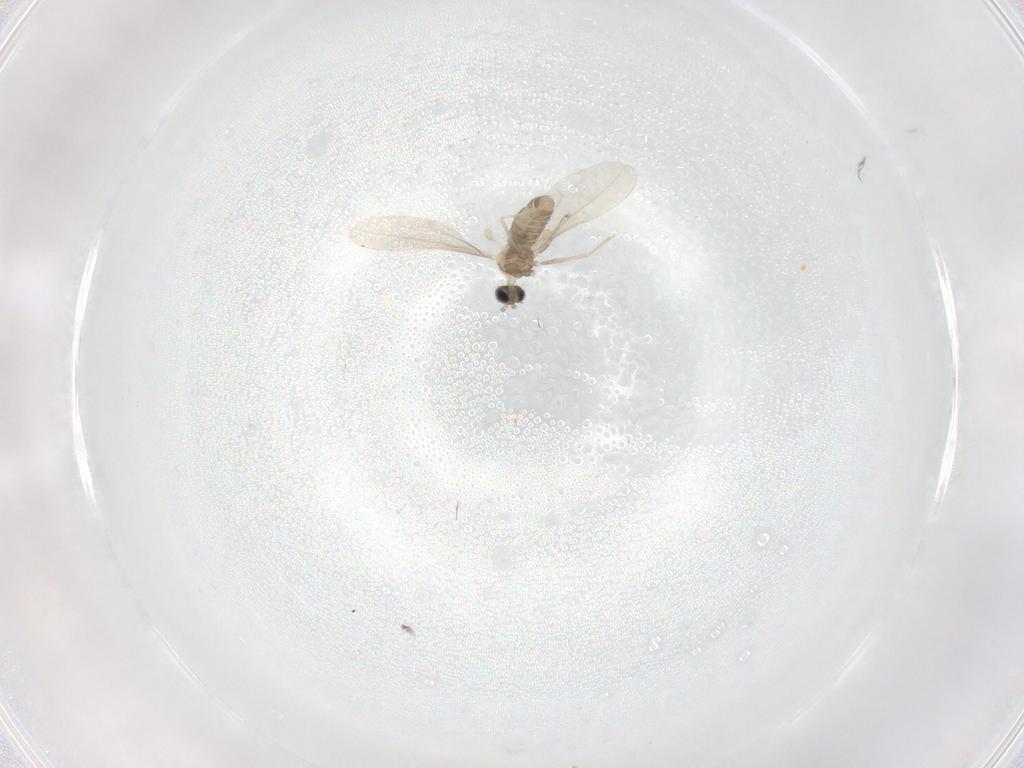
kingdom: Animalia
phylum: Arthropoda
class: Insecta
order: Diptera
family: Cecidomyiidae
